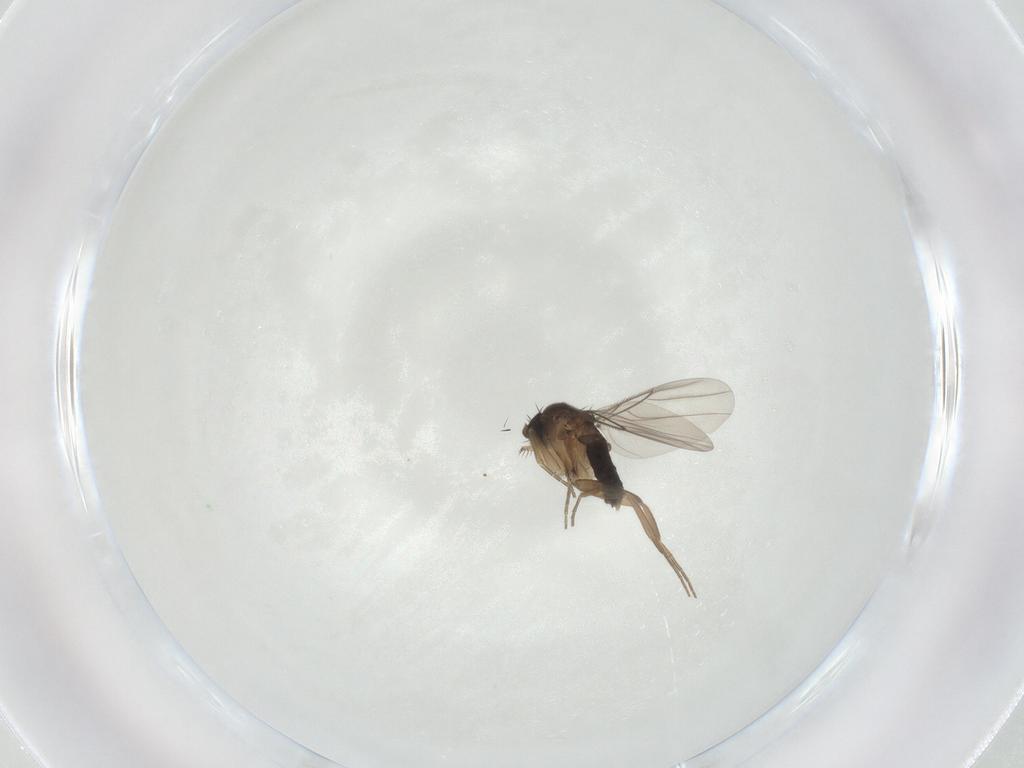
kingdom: Animalia
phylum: Arthropoda
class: Insecta
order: Diptera
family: Phoridae
